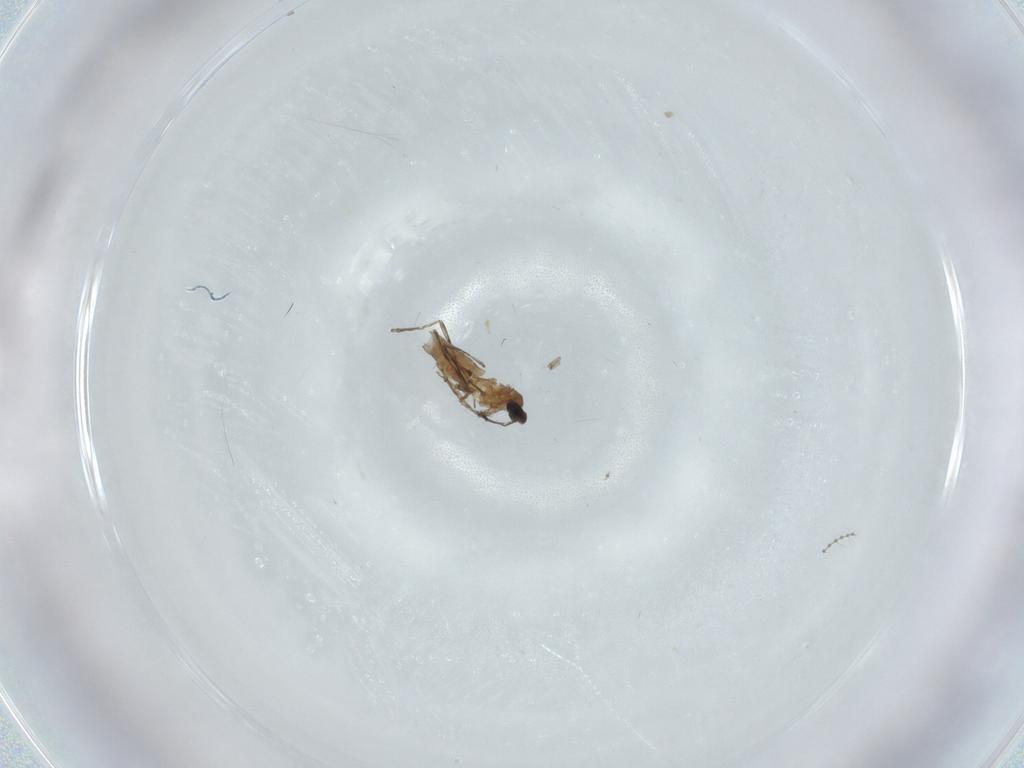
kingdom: Animalia
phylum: Arthropoda
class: Insecta
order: Diptera
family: Cecidomyiidae
